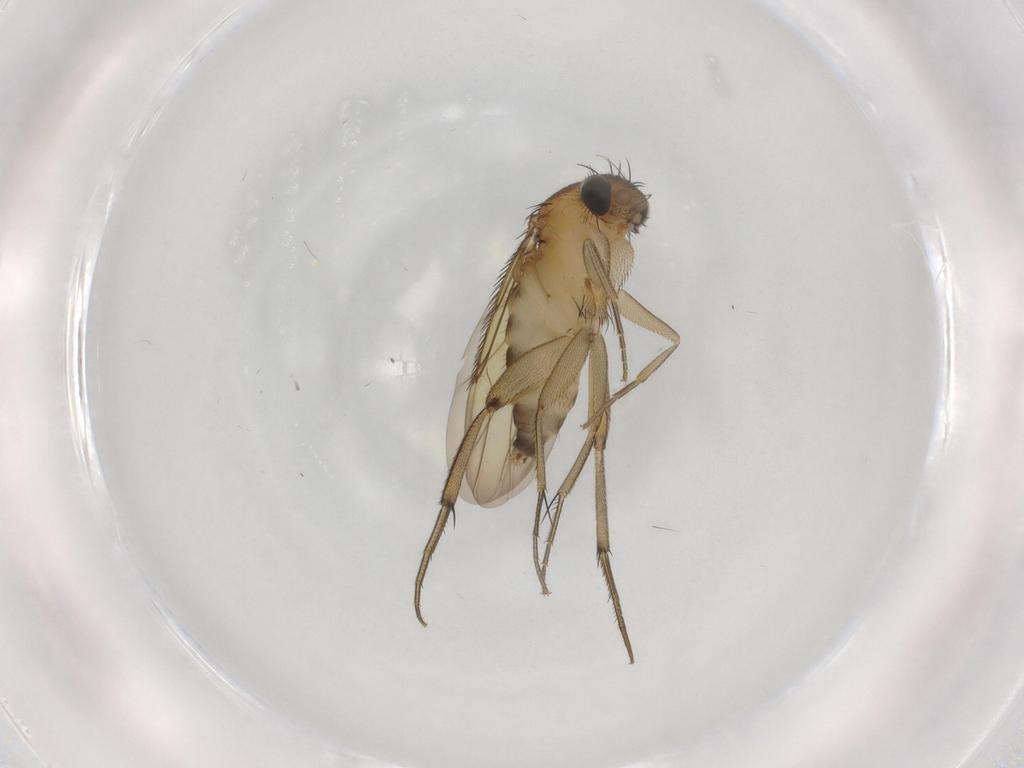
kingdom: Animalia
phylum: Arthropoda
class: Insecta
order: Diptera
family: Phoridae
